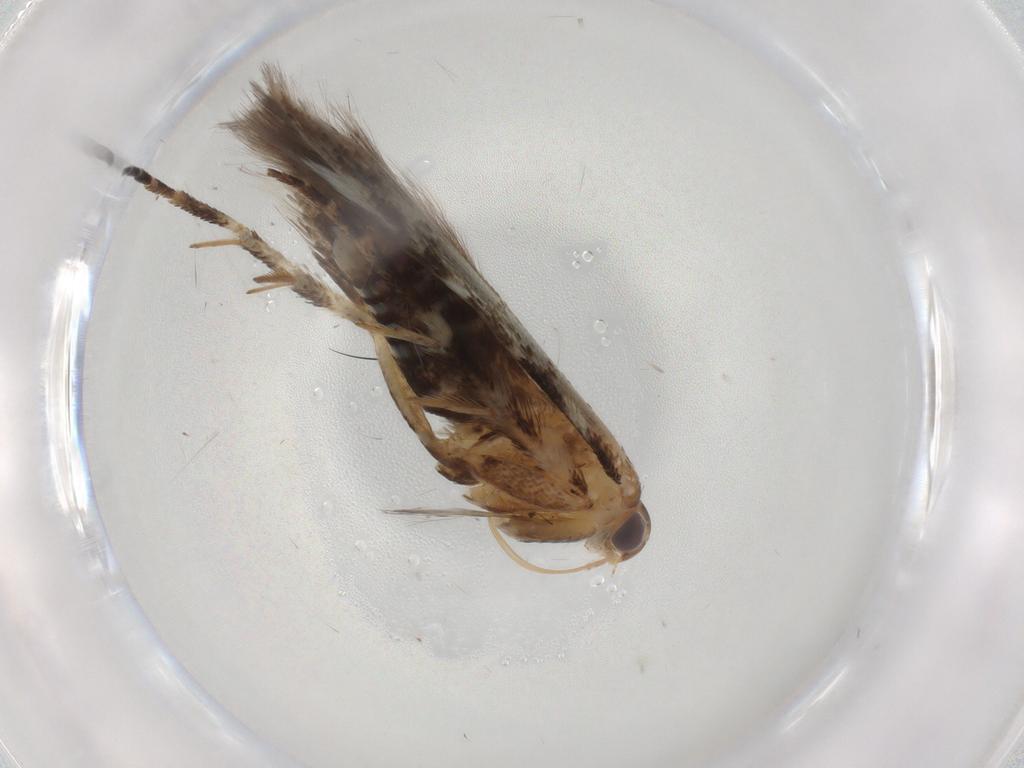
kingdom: Animalia
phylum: Arthropoda
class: Insecta
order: Lepidoptera
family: Gelechiidae
